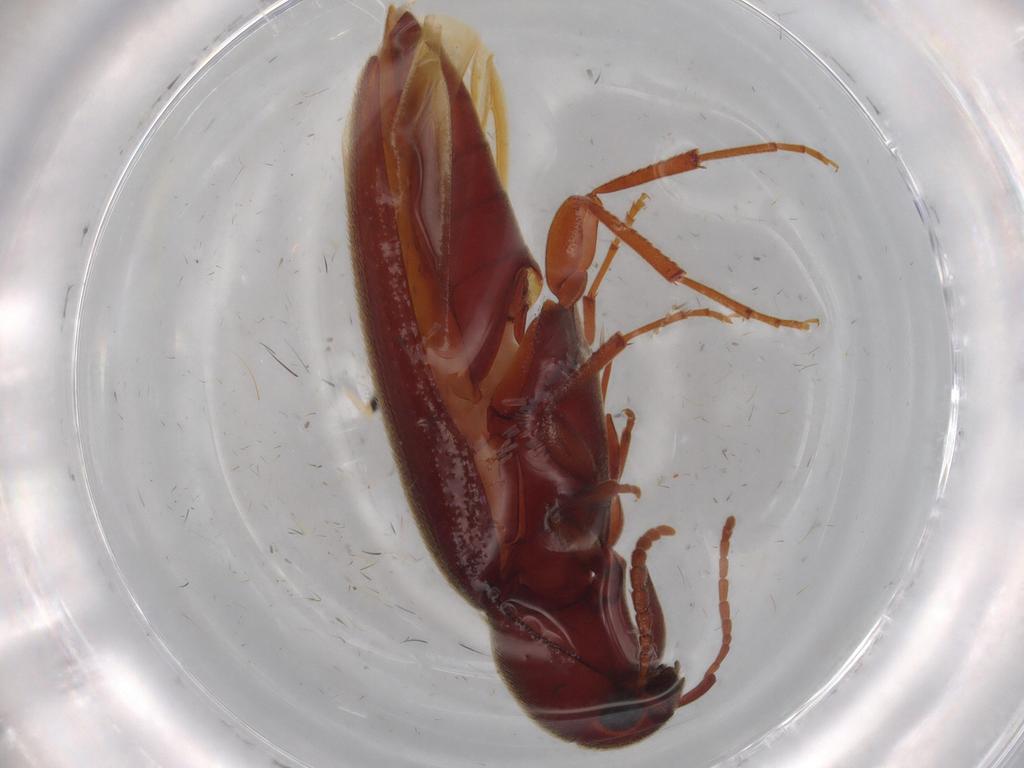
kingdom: Animalia
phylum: Arthropoda
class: Insecta
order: Coleoptera
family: Eucnemidae
